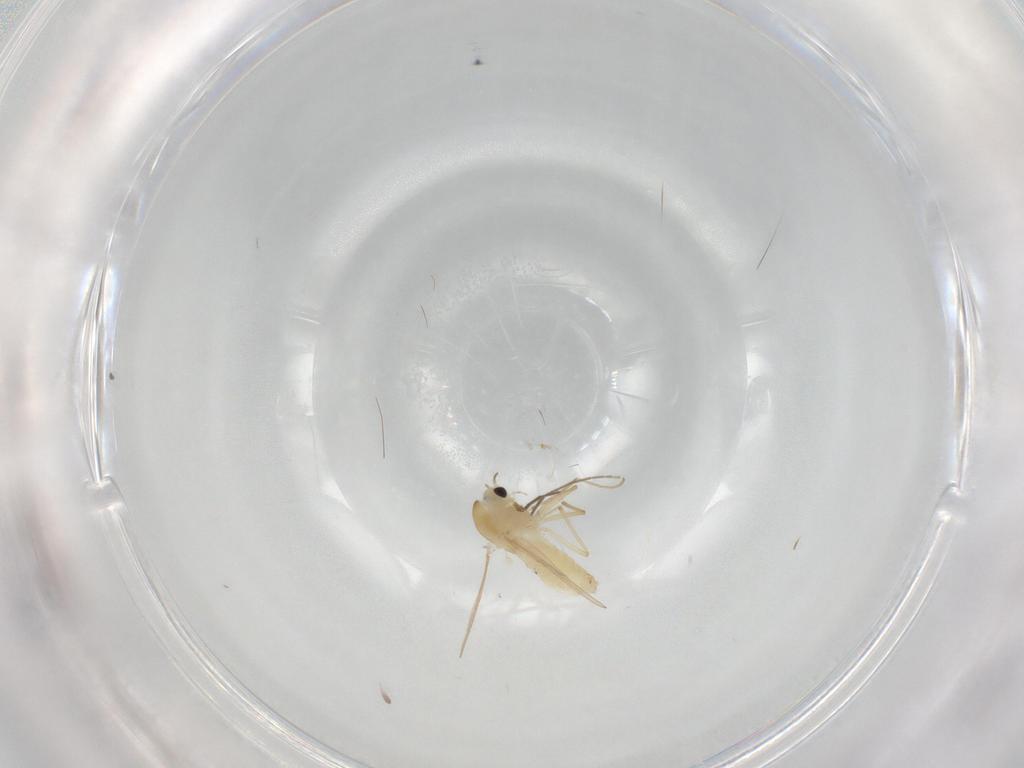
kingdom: Animalia
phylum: Arthropoda
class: Insecta
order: Diptera
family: Chironomidae
